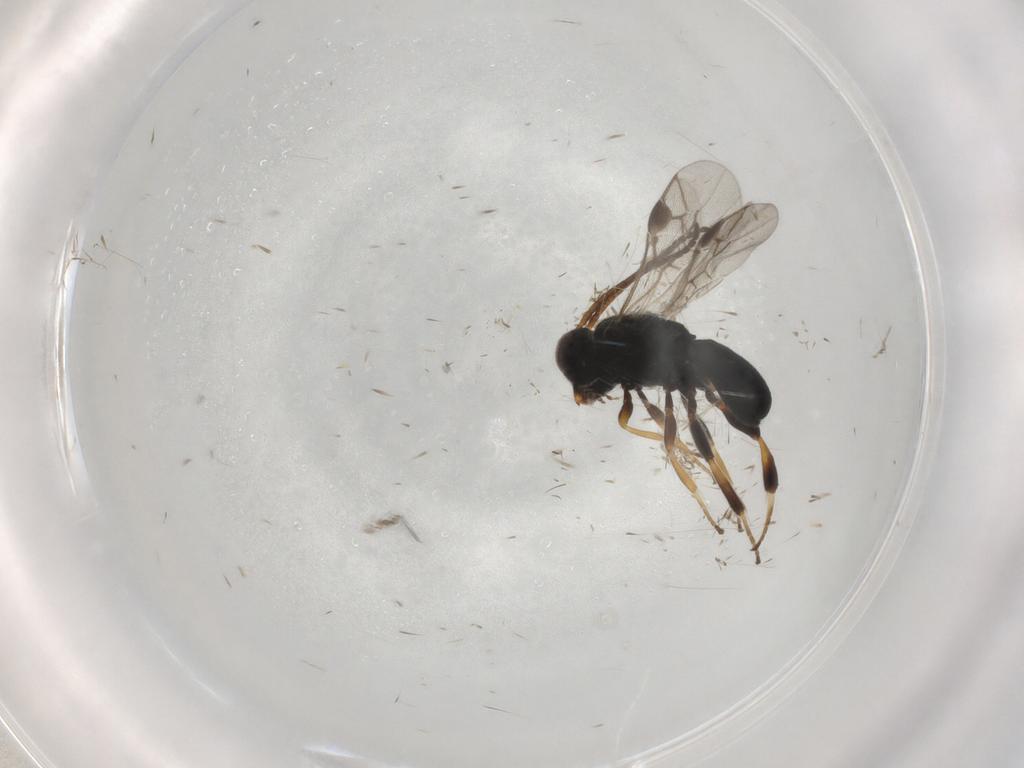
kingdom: Animalia
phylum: Arthropoda
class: Insecta
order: Hymenoptera
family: Braconidae
